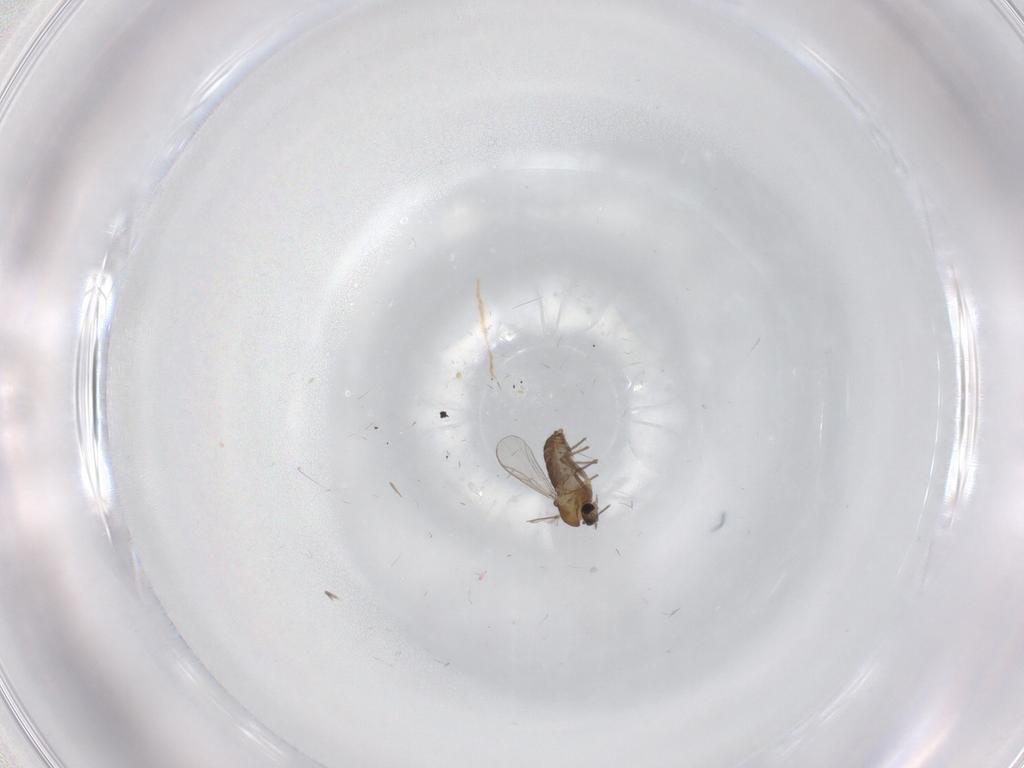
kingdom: Animalia
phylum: Arthropoda
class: Insecta
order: Diptera
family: Chironomidae
